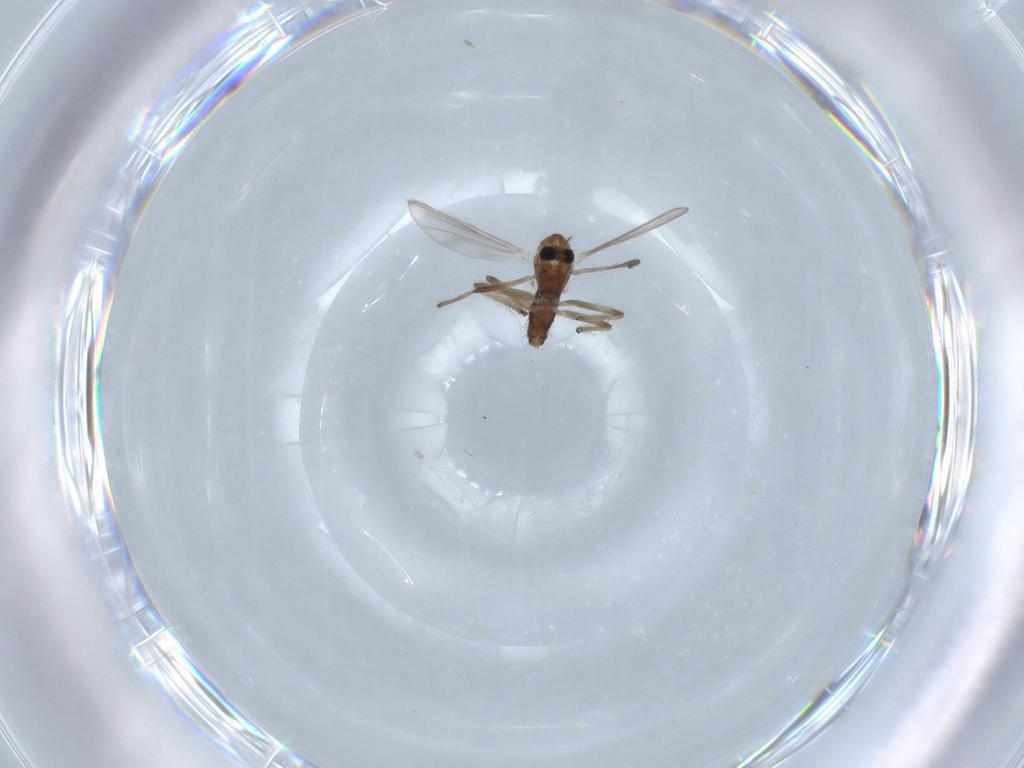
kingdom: Animalia
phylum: Arthropoda
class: Insecta
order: Diptera
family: Chironomidae
